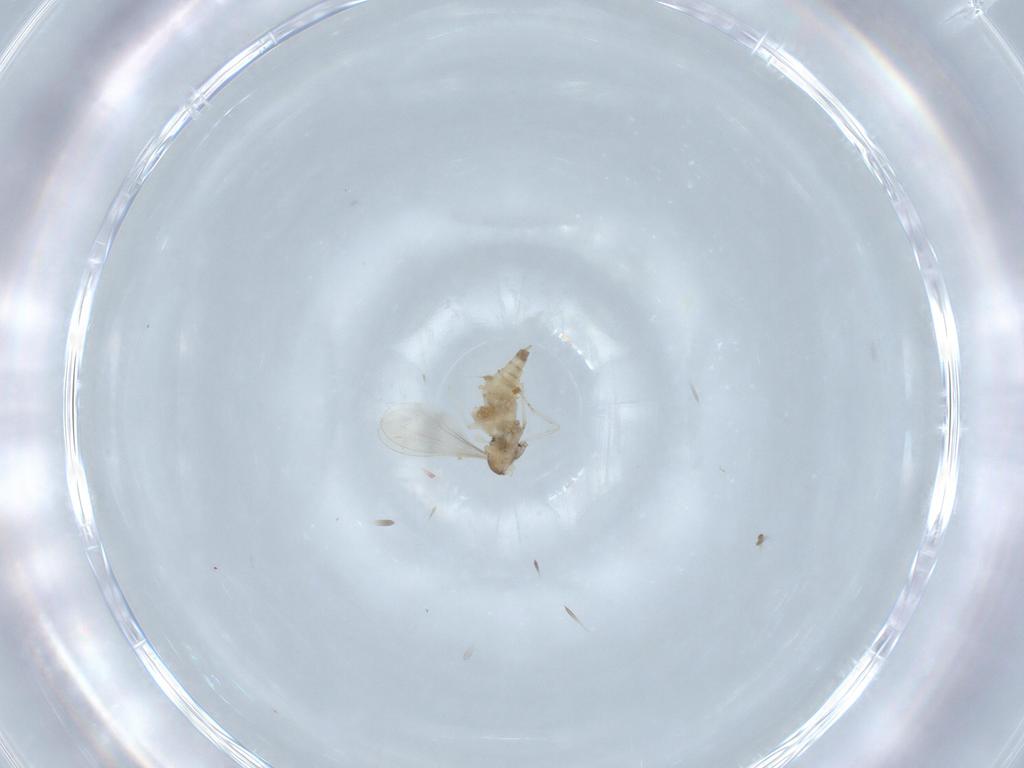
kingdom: Animalia
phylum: Arthropoda
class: Insecta
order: Diptera
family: Cecidomyiidae
